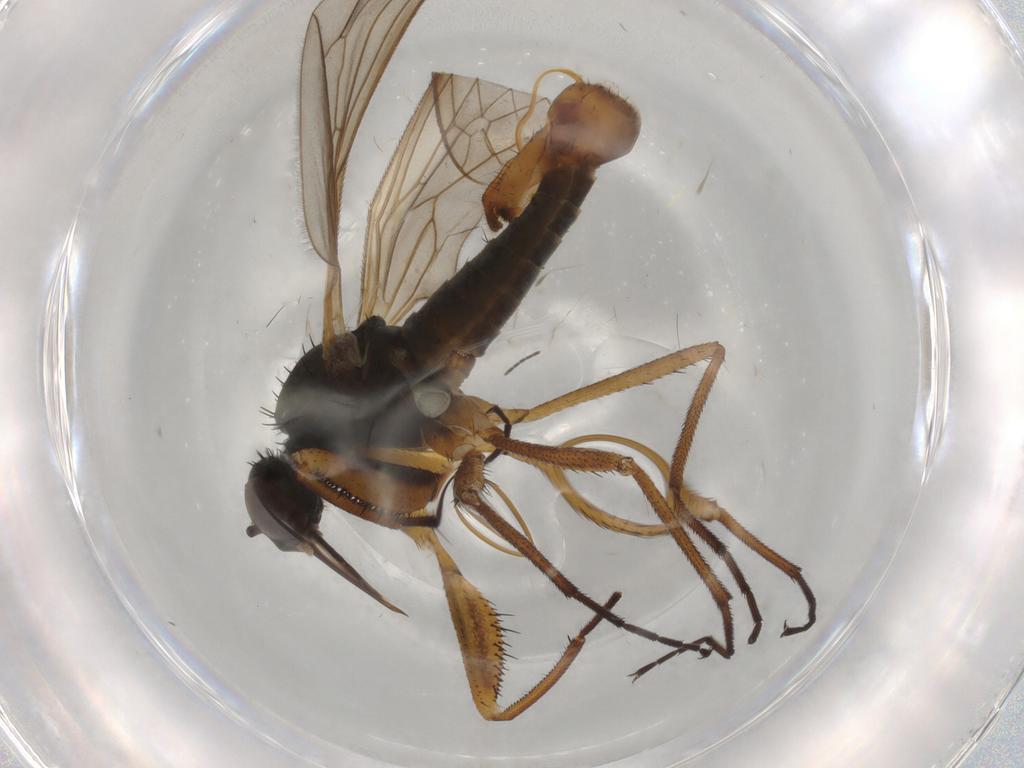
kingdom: Animalia
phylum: Arthropoda
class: Insecta
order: Diptera
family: Empididae
